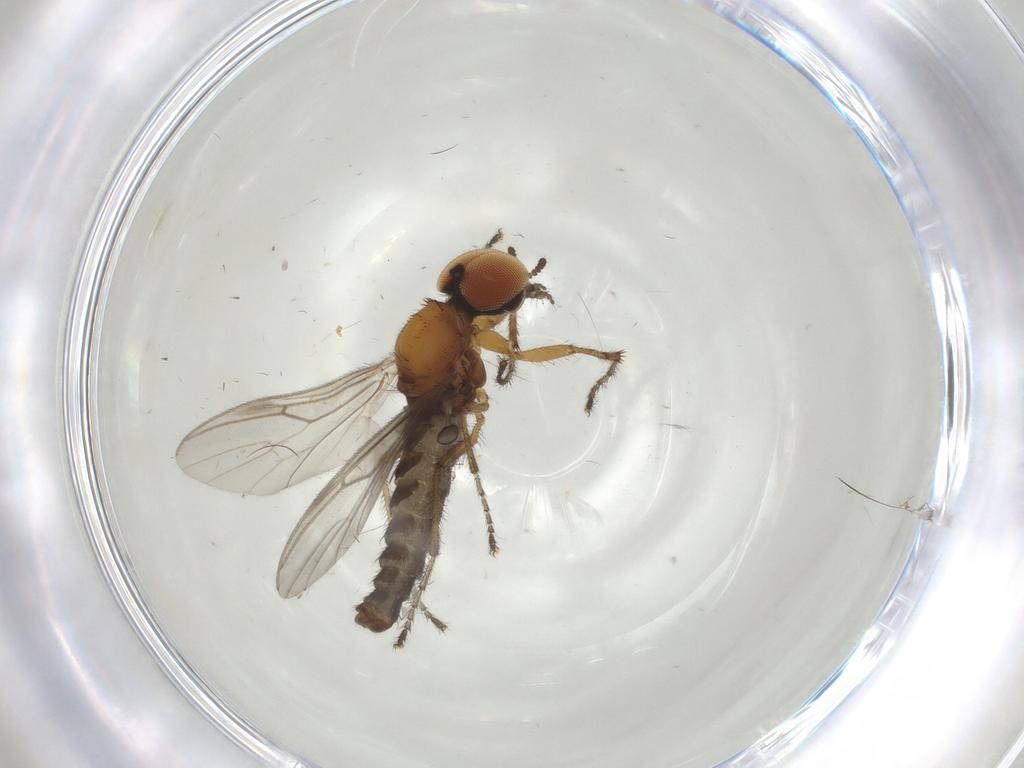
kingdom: Animalia
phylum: Arthropoda
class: Insecta
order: Diptera
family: Bibionidae
